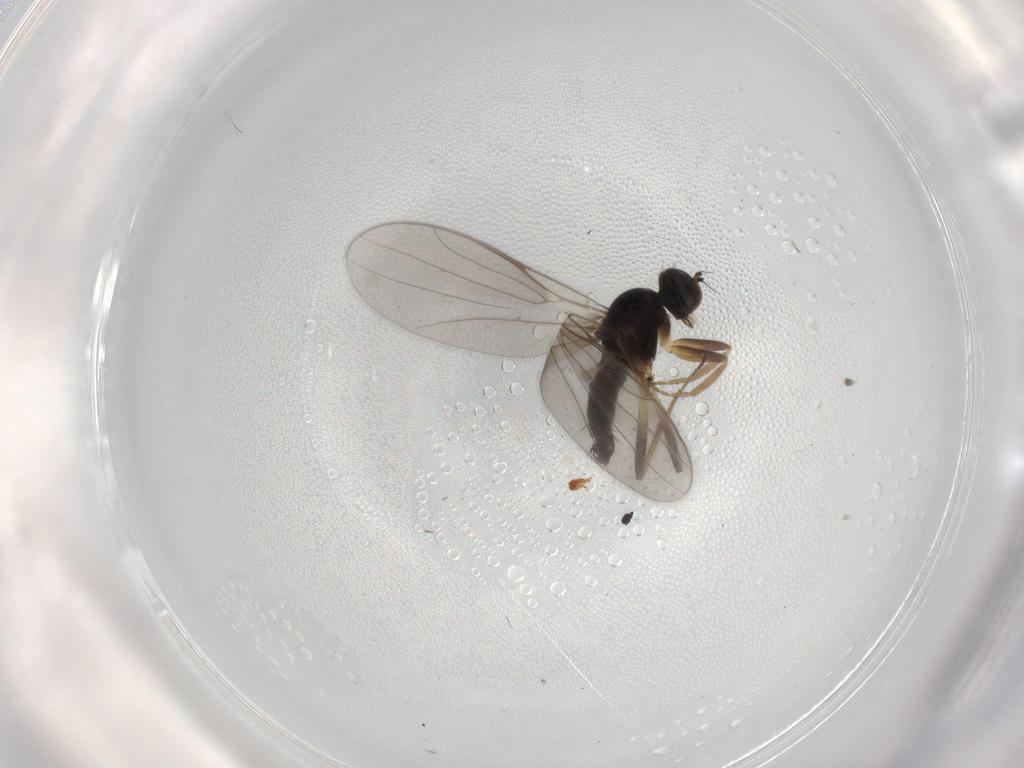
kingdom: Animalia
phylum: Arthropoda
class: Insecta
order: Diptera
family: Hybotidae
